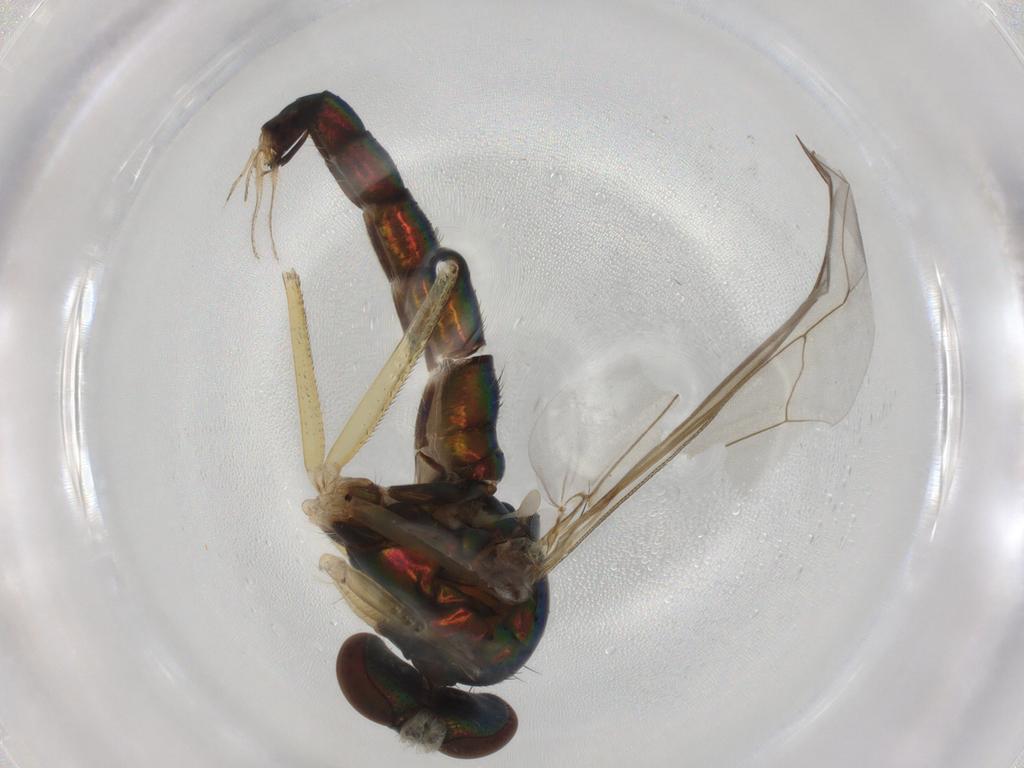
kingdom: Animalia
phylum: Arthropoda
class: Insecta
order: Diptera
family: Dolichopodidae
